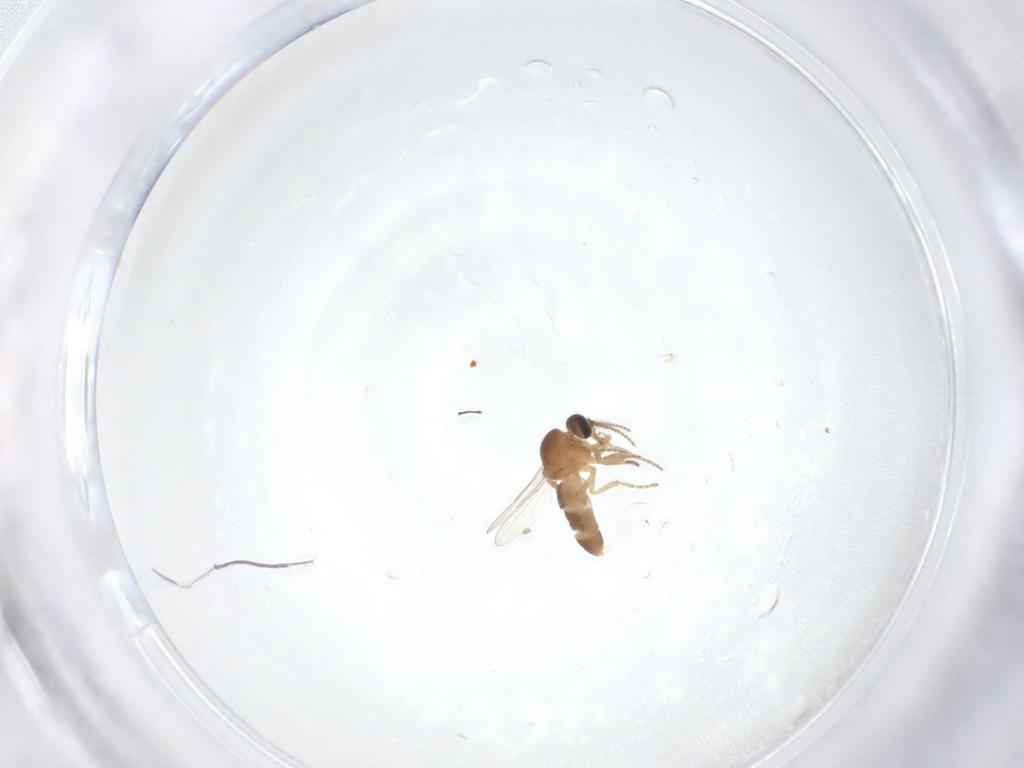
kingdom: Animalia
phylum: Arthropoda
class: Insecta
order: Diptera
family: Ceratopogonidae
